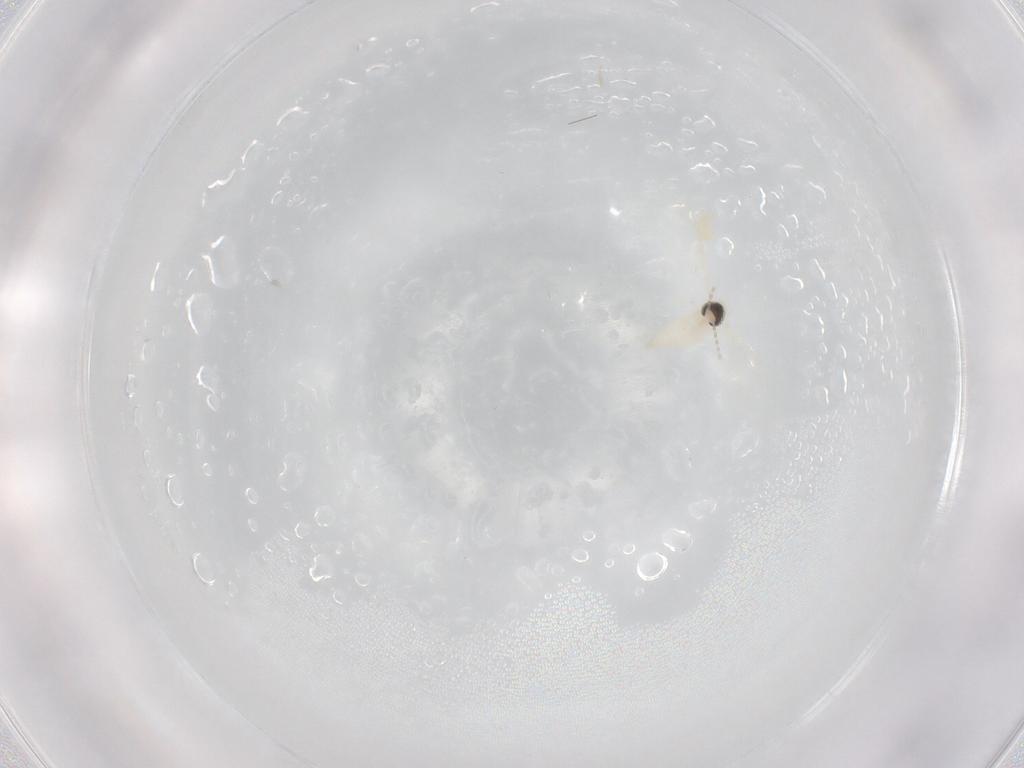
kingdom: Animalia
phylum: Arthropoda
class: Insecta
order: Diptera
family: Phoridae
